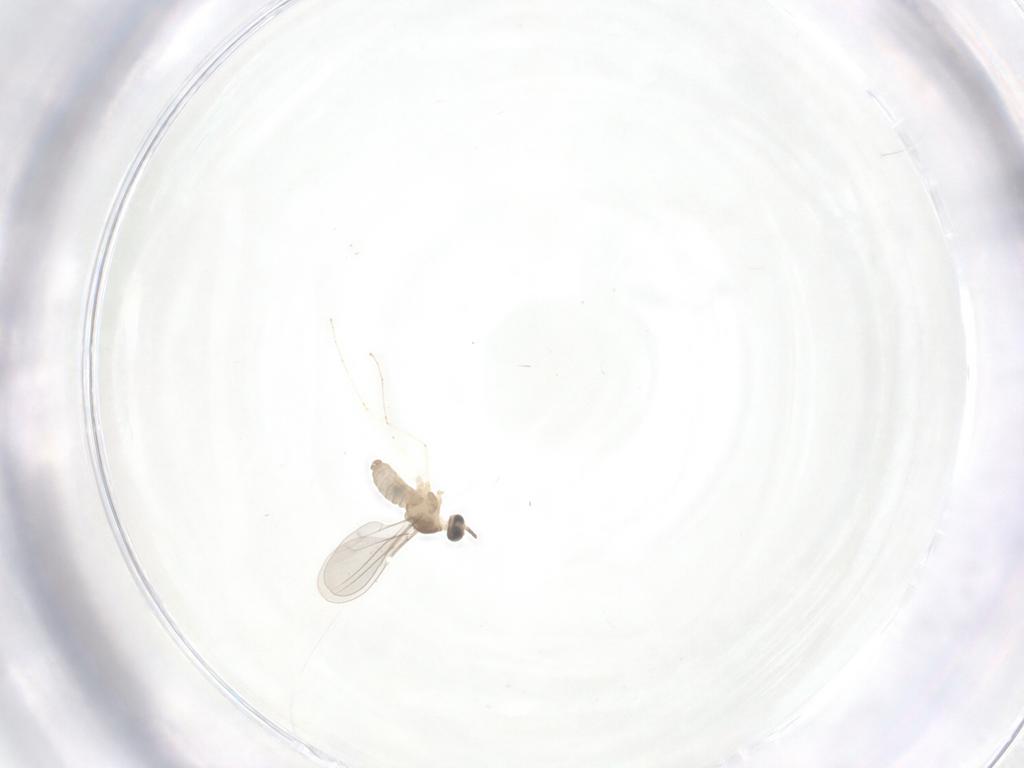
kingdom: Animalia
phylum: Arthropoda
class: Insecta
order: Diptera
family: Cecidomyiidae
